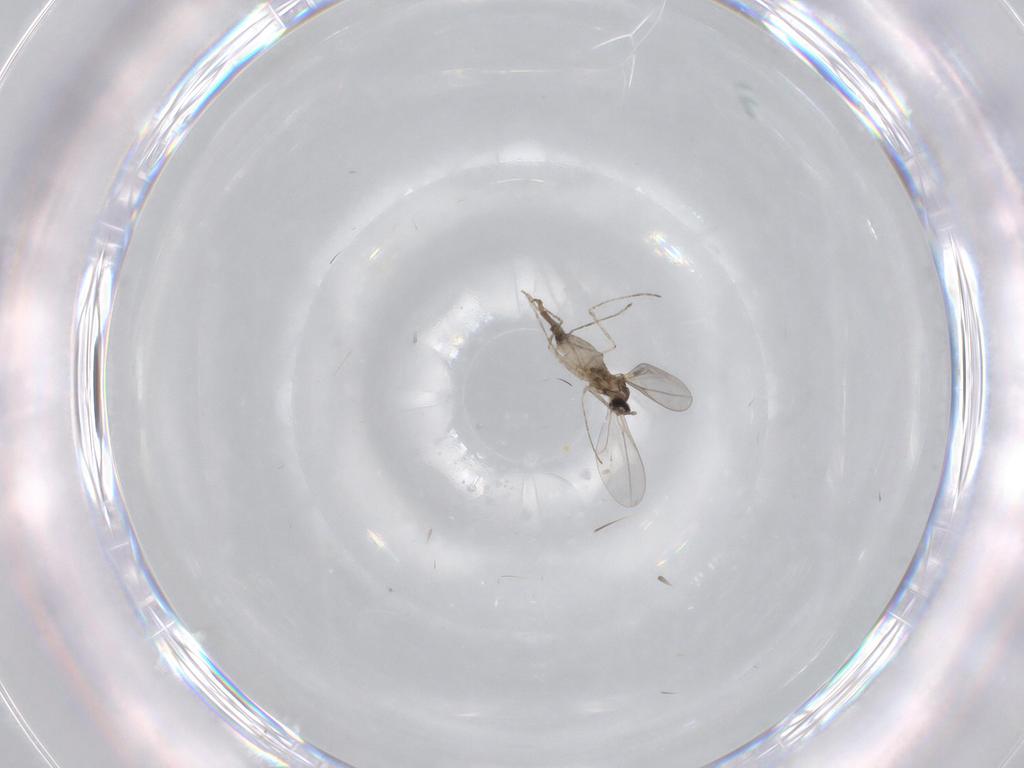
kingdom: Animalia
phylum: Arthropoda
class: Insecta
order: Diptera
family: Cecidomyiidae
